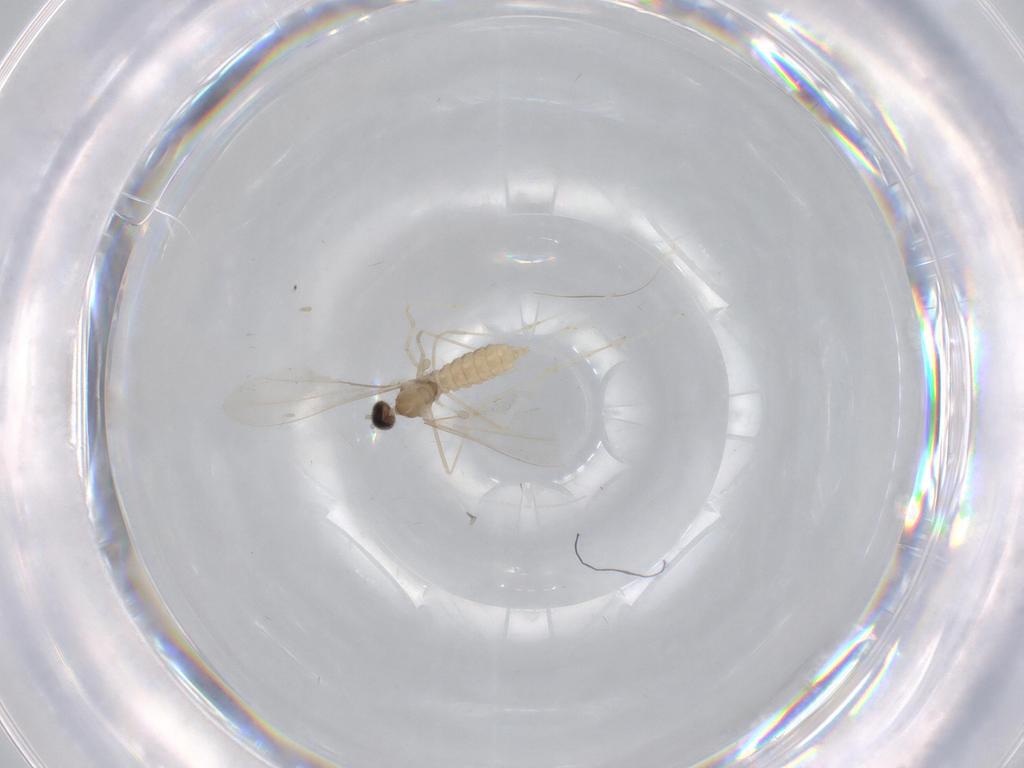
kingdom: Animalia
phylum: Arthropoda
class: Insecta
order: Diptera
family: Cecidomyiidae
